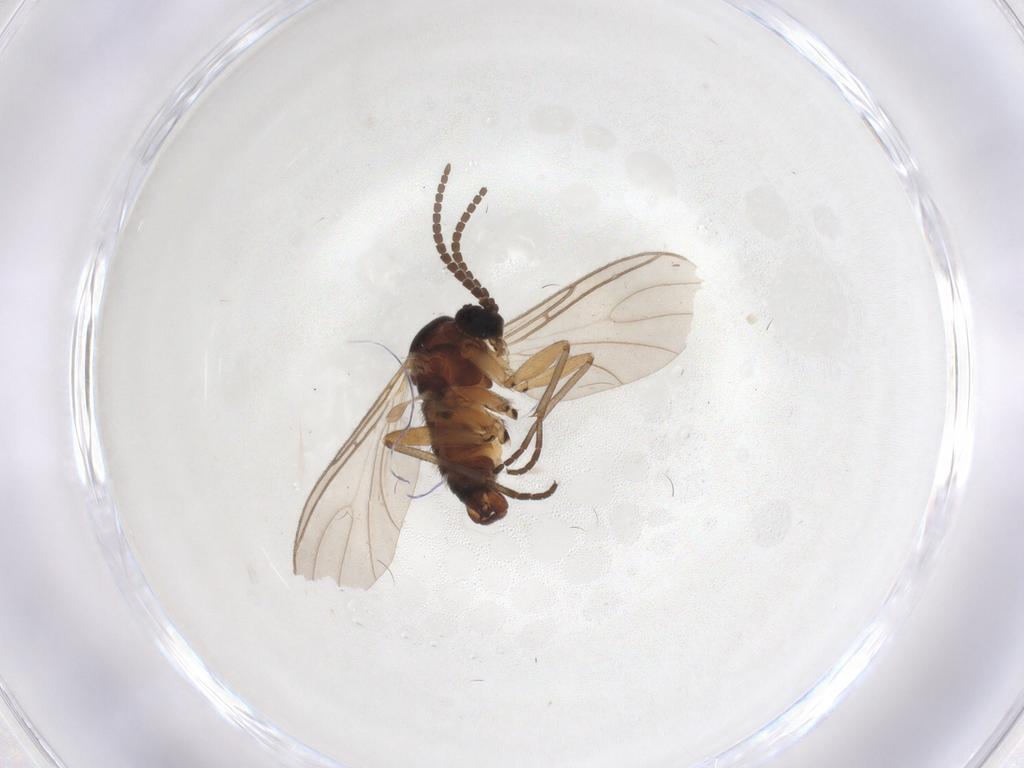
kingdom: Animalia
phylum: Arthropoda
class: Insecta
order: Diptera
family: Sciaridae
